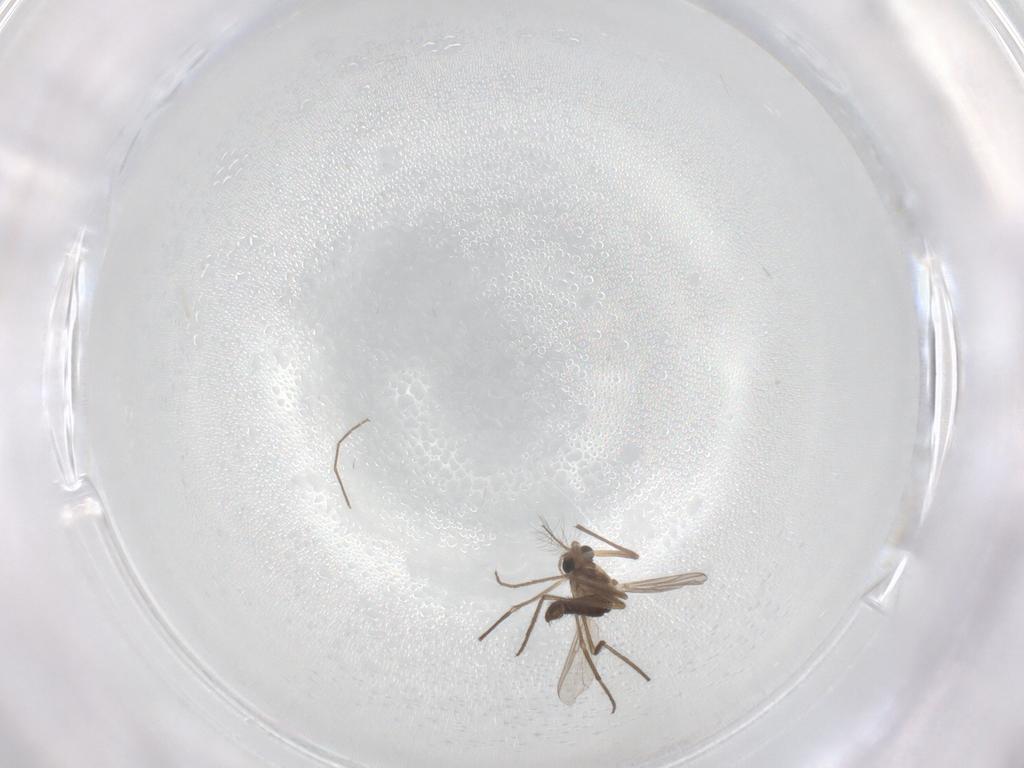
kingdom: Animalia
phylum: Arthropoda
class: Insecta
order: Diptera
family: Chironomidae
